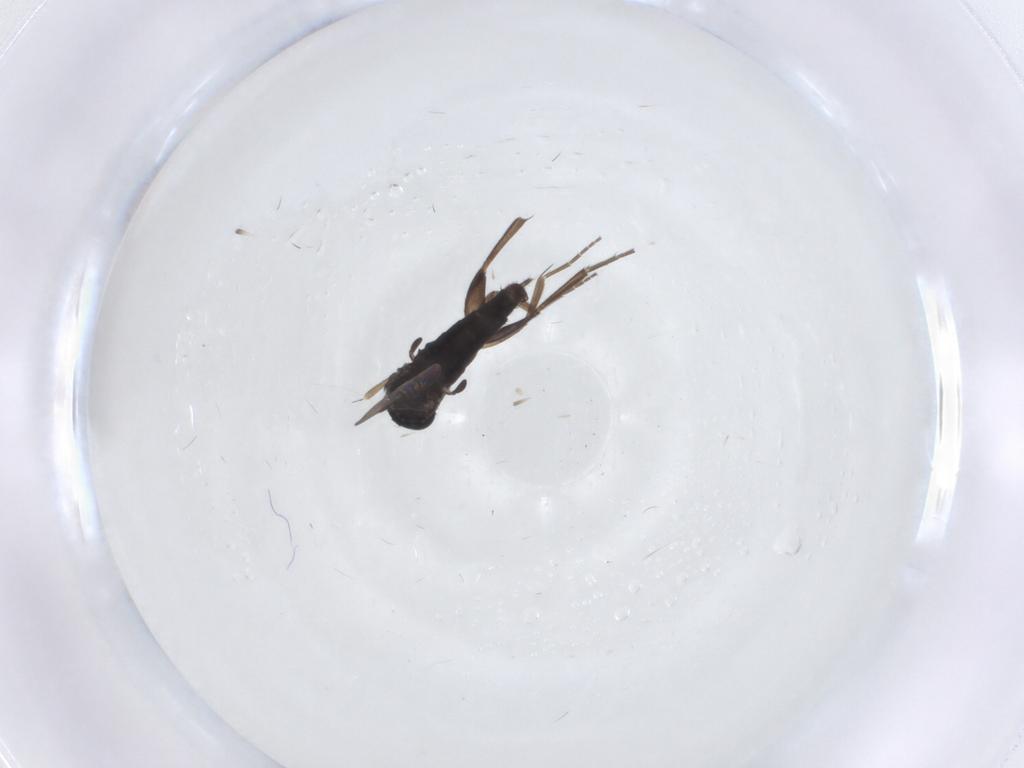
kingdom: Animalia
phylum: Arthropoda
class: Insecta
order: Diptera
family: Phoridae
